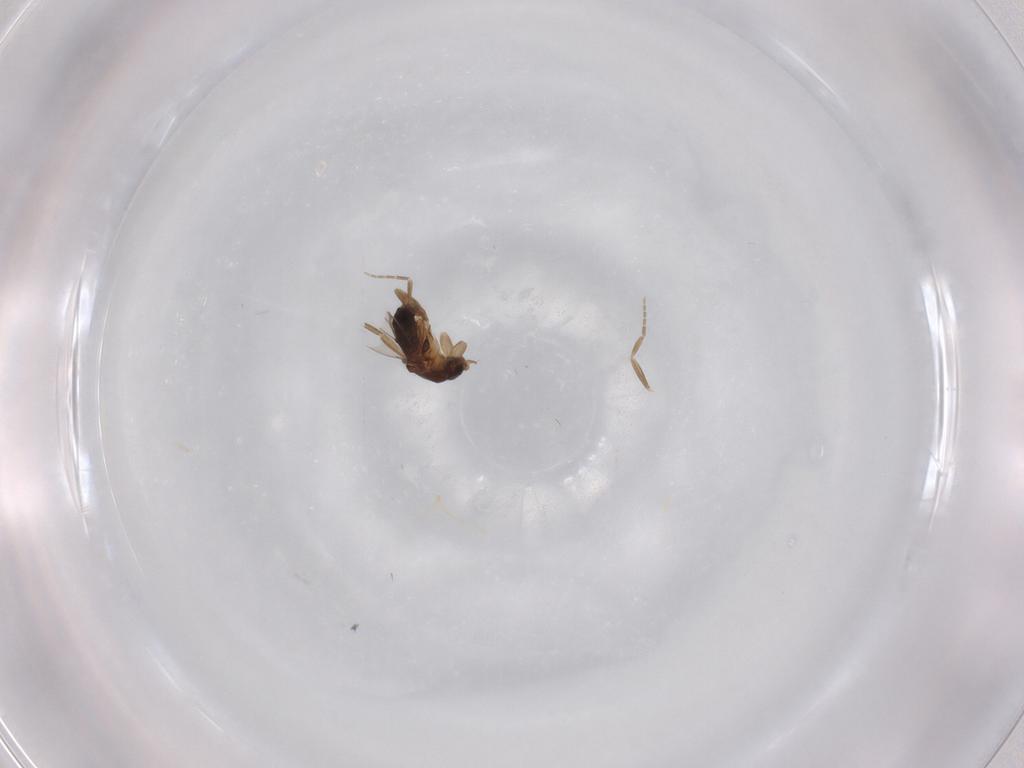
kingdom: Animalia
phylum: Arthropoda
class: Insecta
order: Diptera
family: Phoridae
